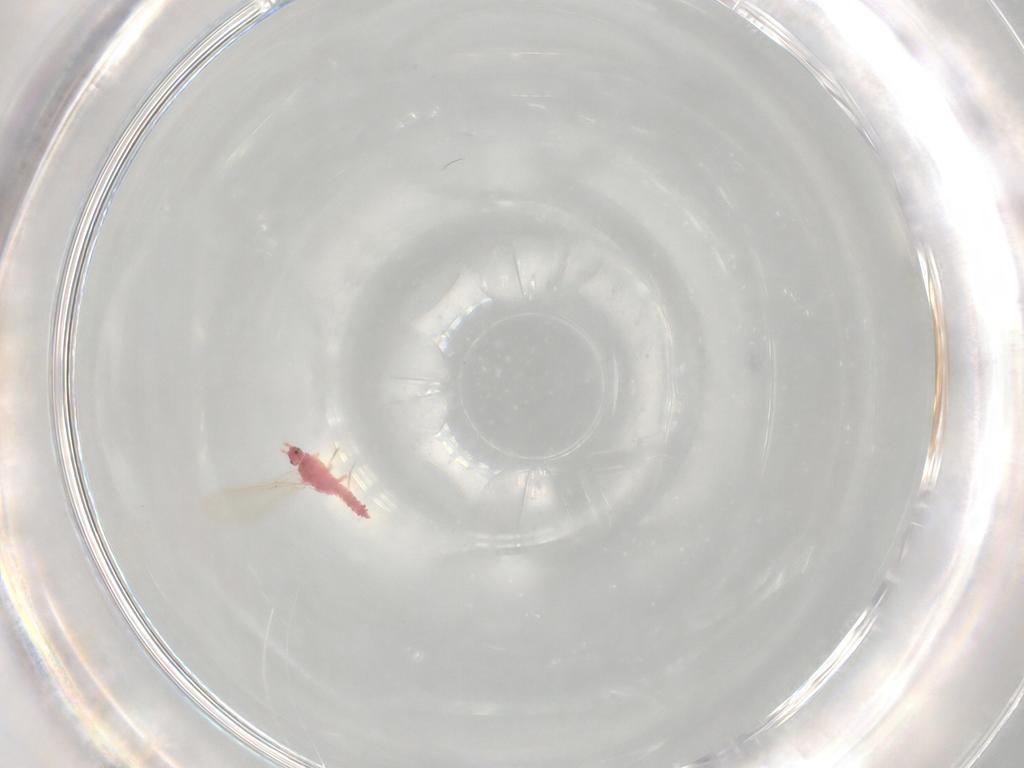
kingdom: Animalia
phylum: Arthropoda
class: Insecta
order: Hemiptera
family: Pseudococcidae
